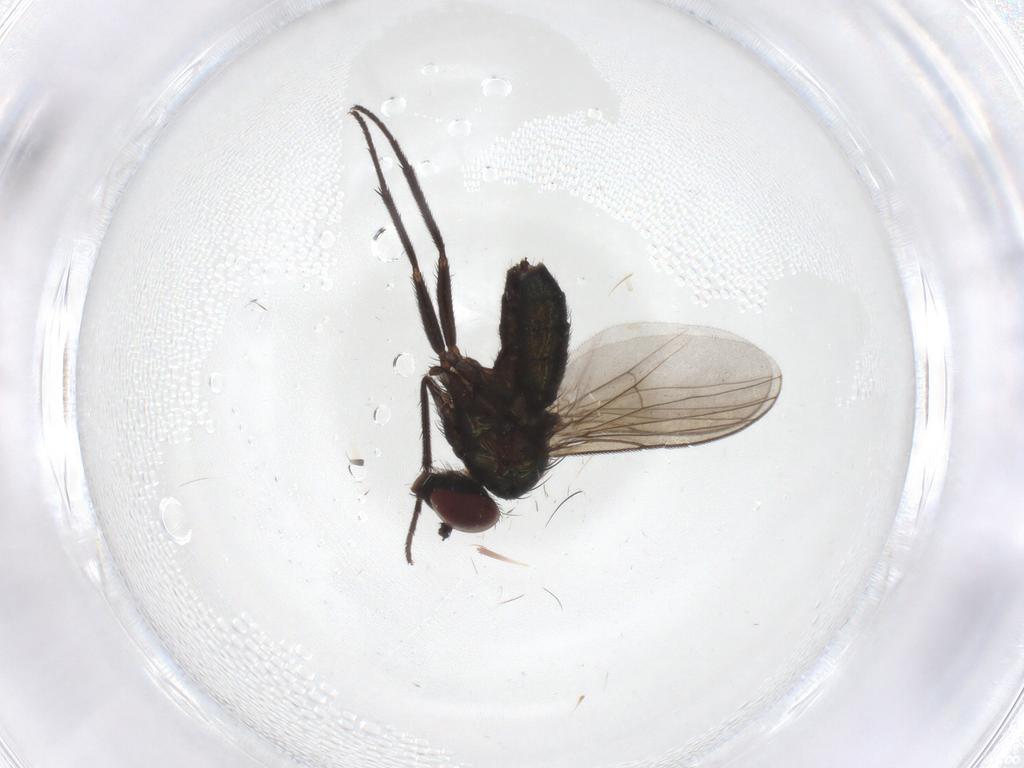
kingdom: Animalia
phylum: Arthropoda
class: Insecta
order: Diptera
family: Dolichopodidae
